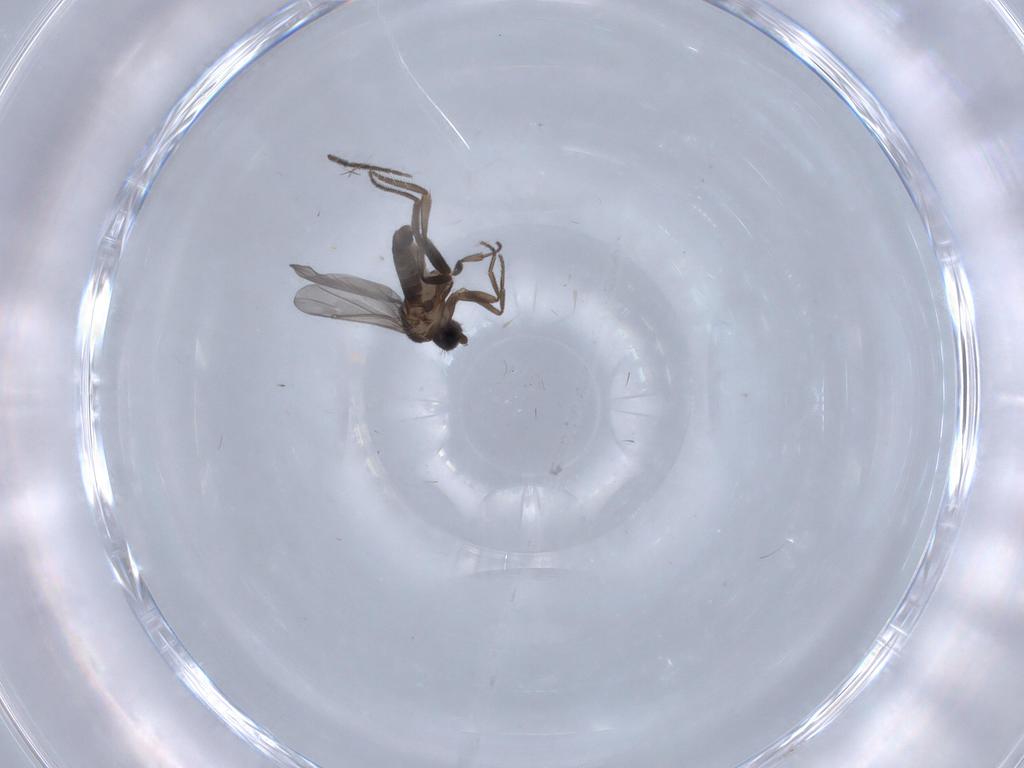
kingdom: Animalia
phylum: Arthropoda
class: Insecta
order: Diptera
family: Phoridae
